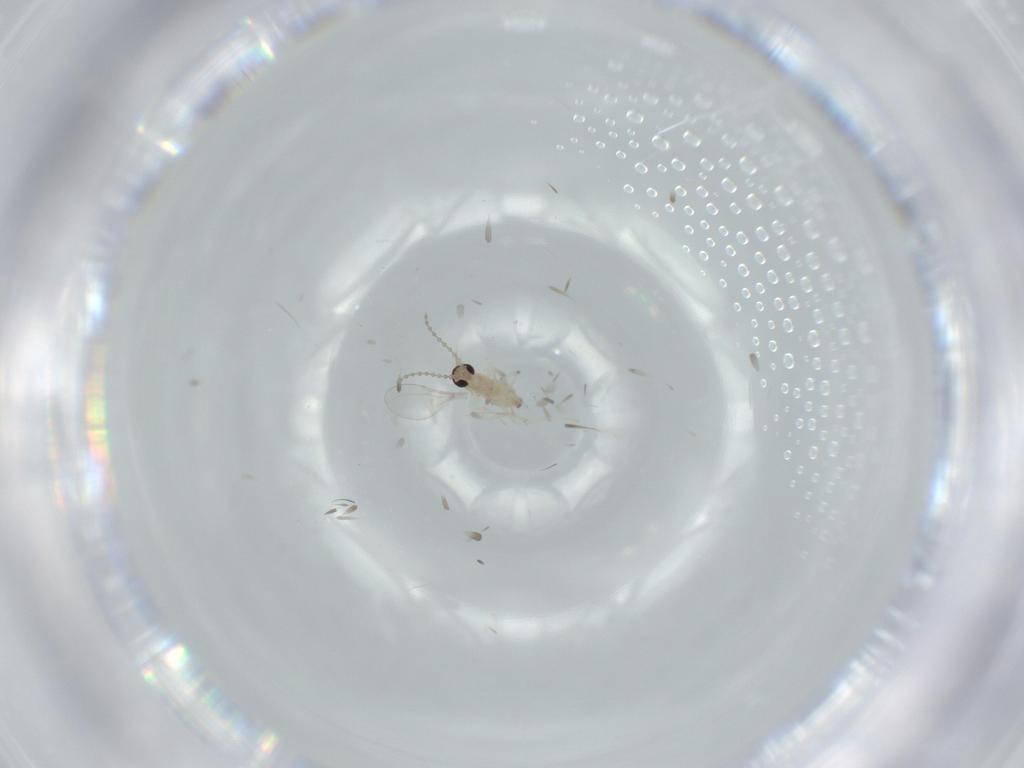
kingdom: Animalia
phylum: Arthropoda
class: Insecta
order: Diptera
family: Cecidomyiidae
